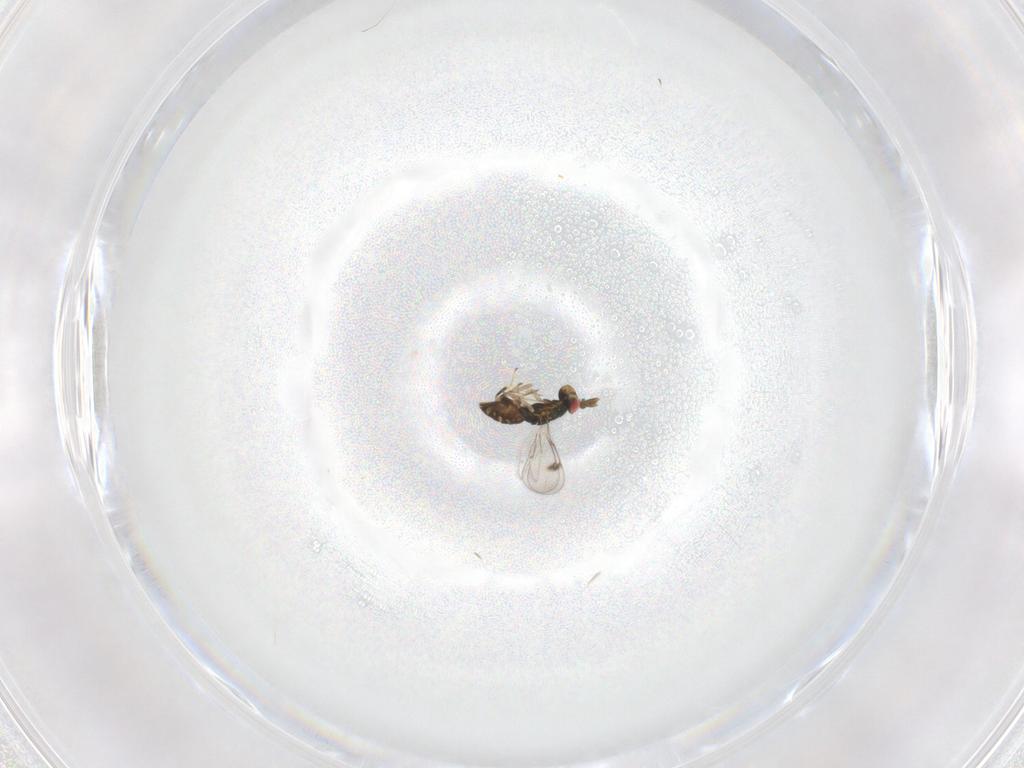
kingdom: Animalia
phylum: Arthropoda
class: Insecta
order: Hymenoptera
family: Eulophidae
